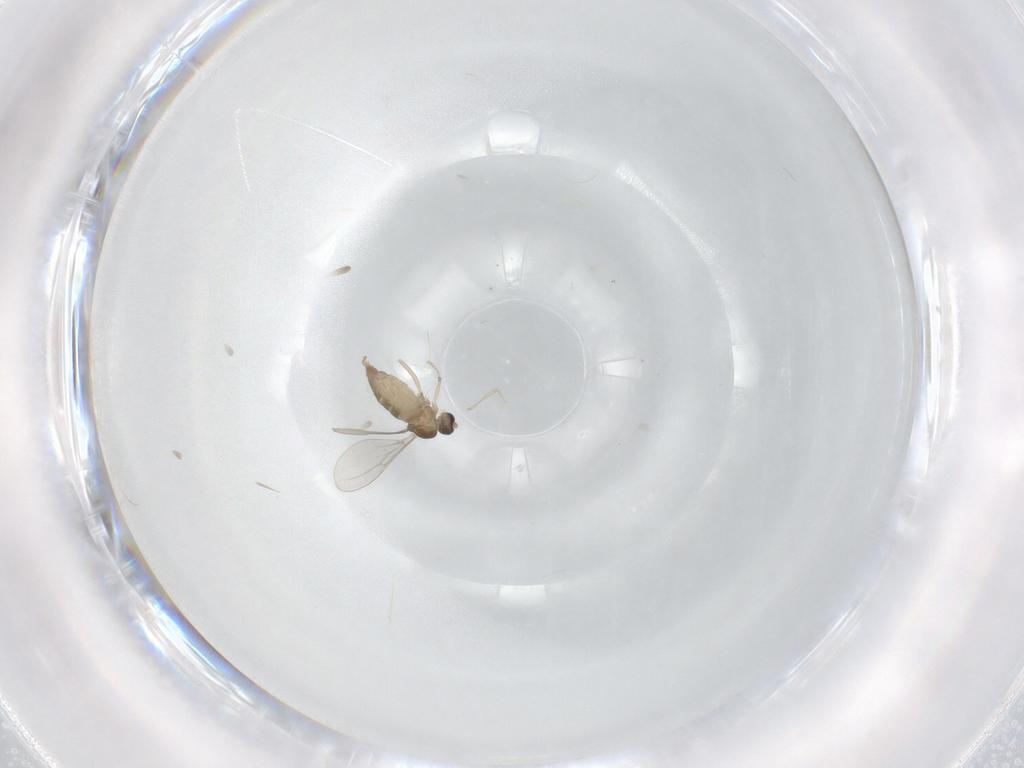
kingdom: Animalia
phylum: Arthropoda
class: Insecta
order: Diptera
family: Cecidomyiidae
